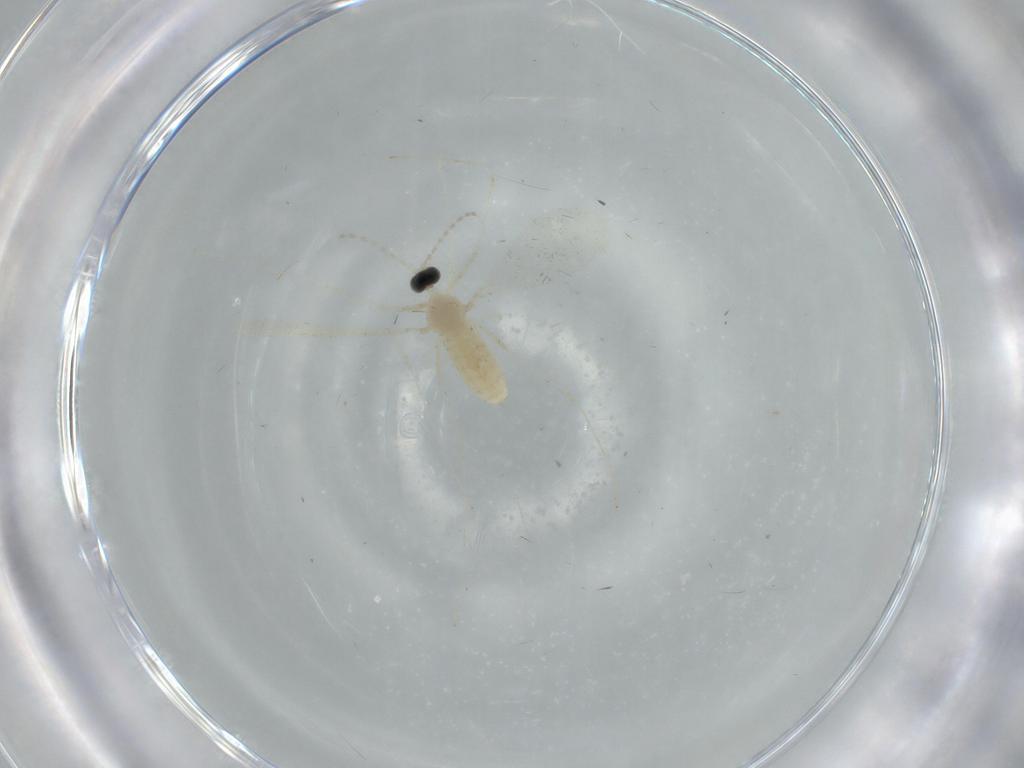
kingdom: Animalia
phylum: Arthropoda
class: Insecta
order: Diptera
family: Cecidomyiidae
